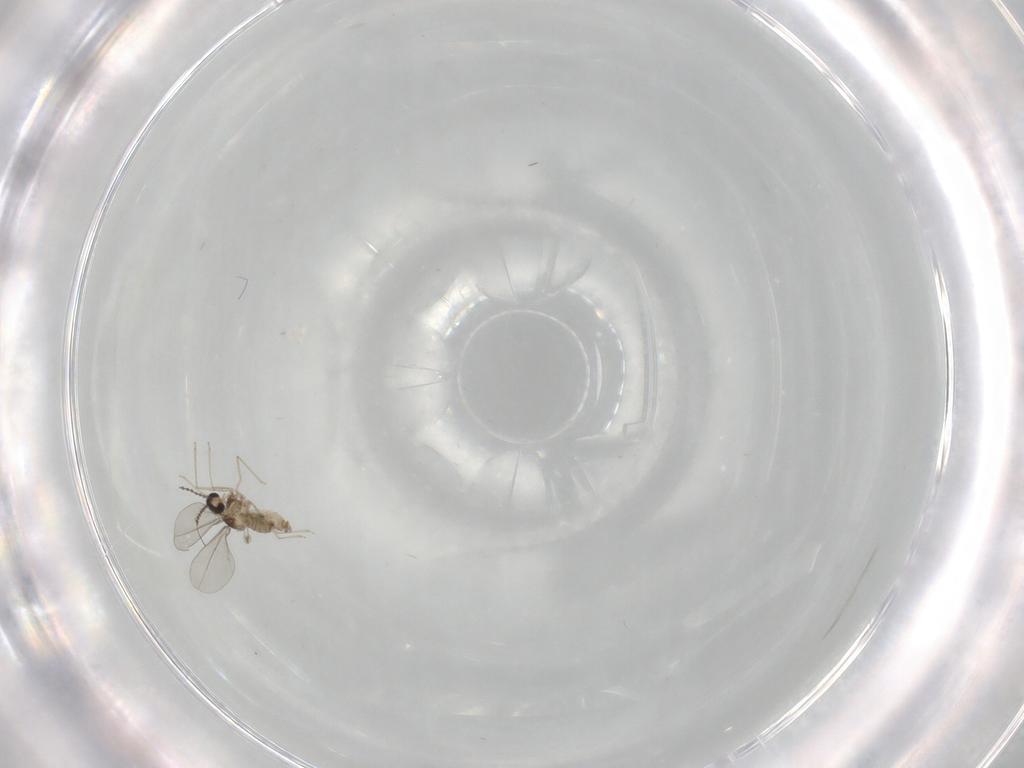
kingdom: Animalia
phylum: Arthropoda
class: Insecta
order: Diptera
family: Cecidomyiidae
